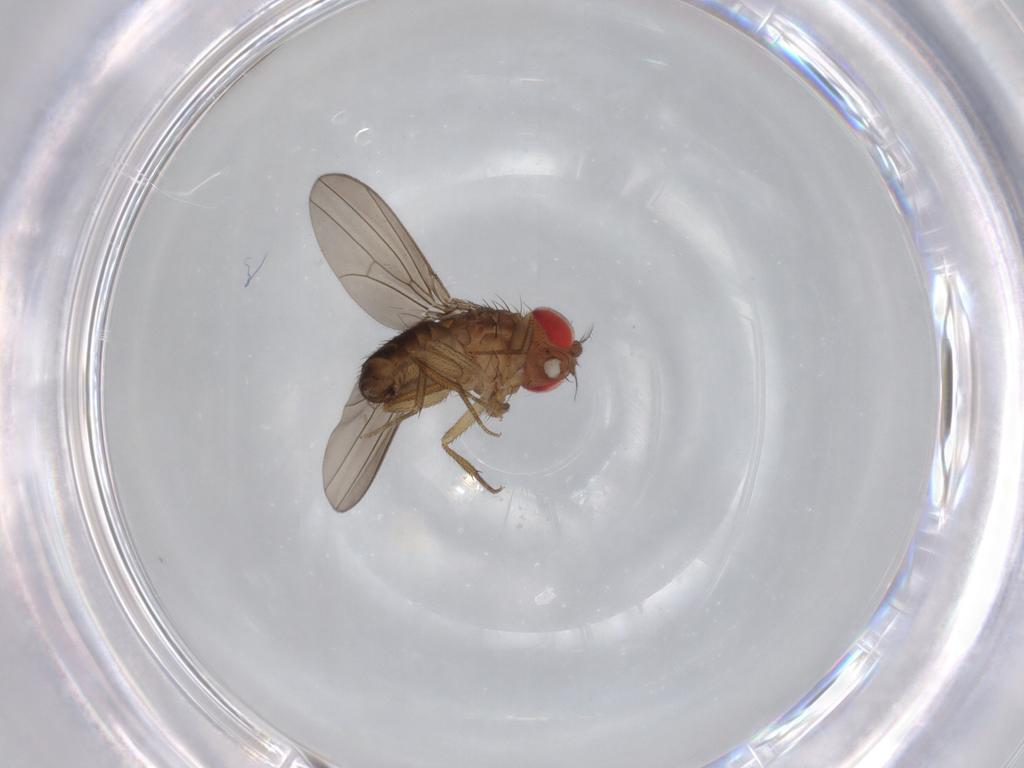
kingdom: Animalia
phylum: Arthropoda
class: Insecta
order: Diptera
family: Drosophilidae
